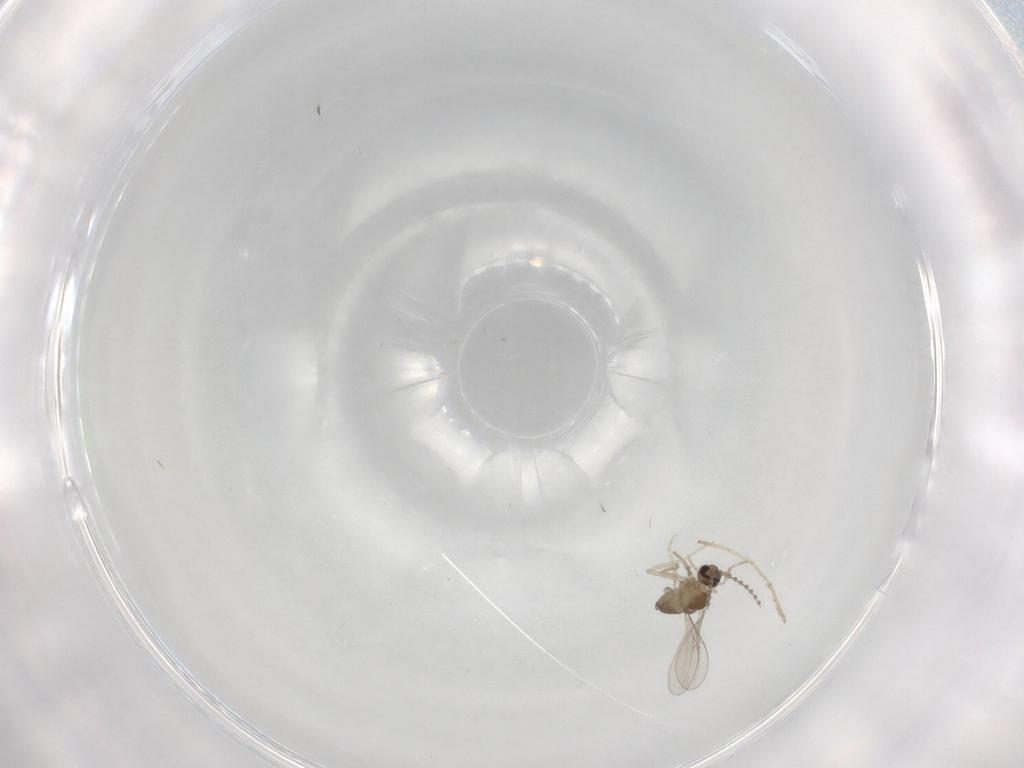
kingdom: Animalia
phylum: Arthropoda
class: Insecta
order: Diptera
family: Cecidomyiidae
